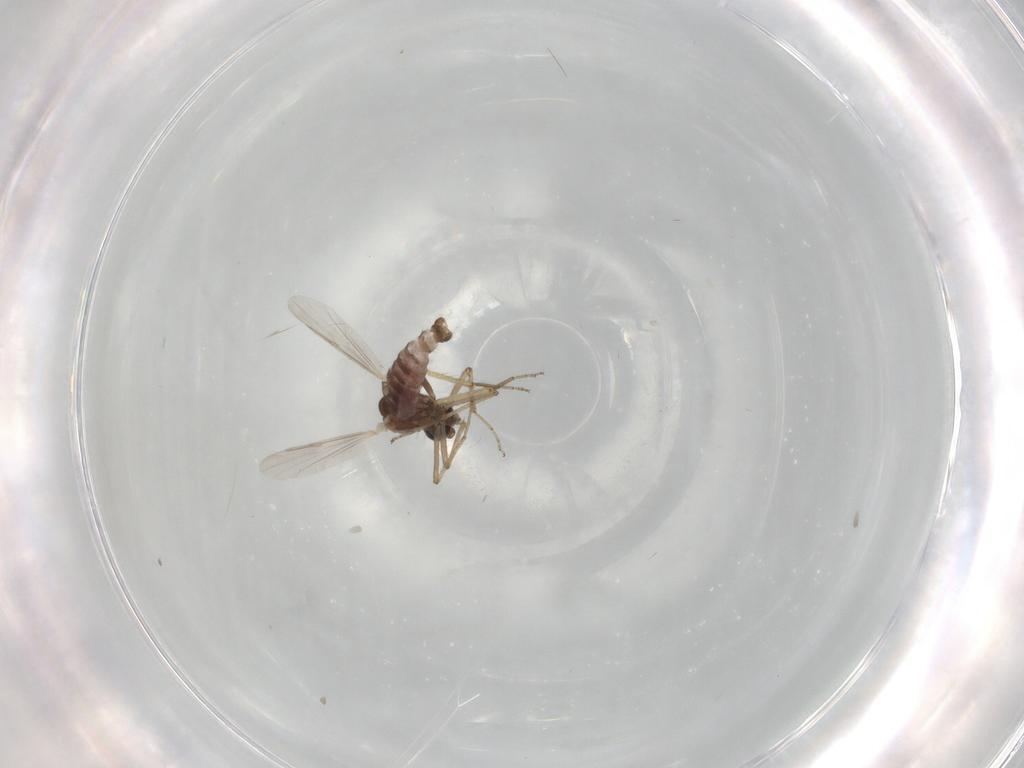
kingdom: Animalia
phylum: Arthropoda
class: Insecta
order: Diptera
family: Ceratopogonidae
